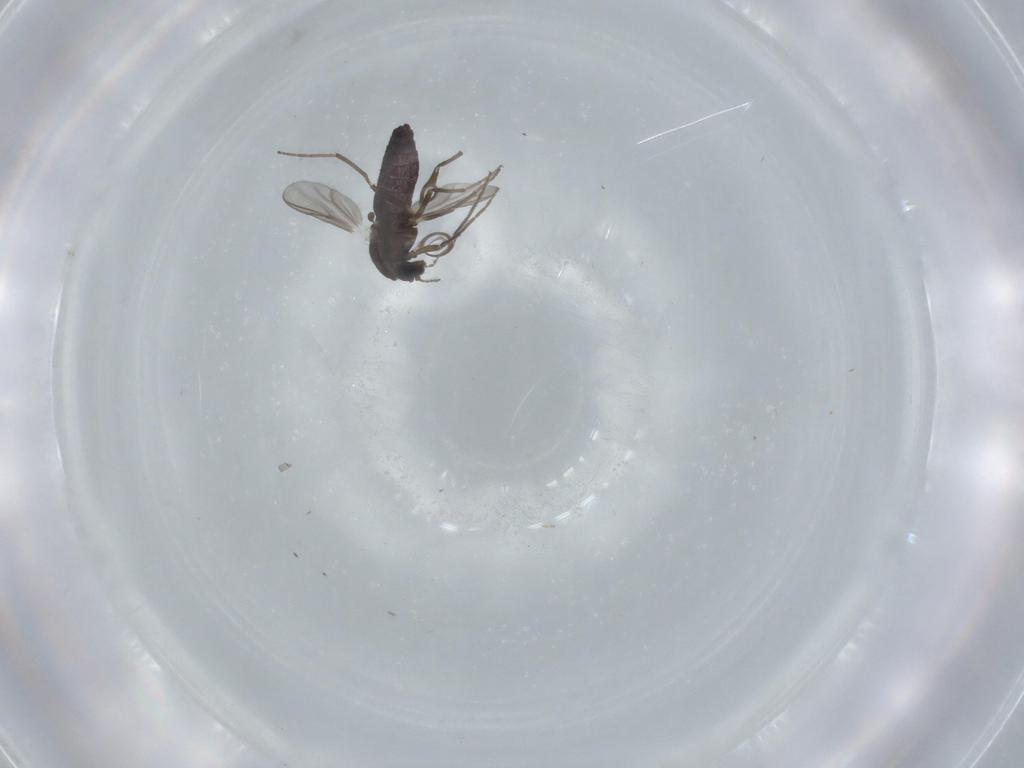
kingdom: Animalia
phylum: Arthropoda
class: Insecta
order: Diptera
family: Chironomidae
